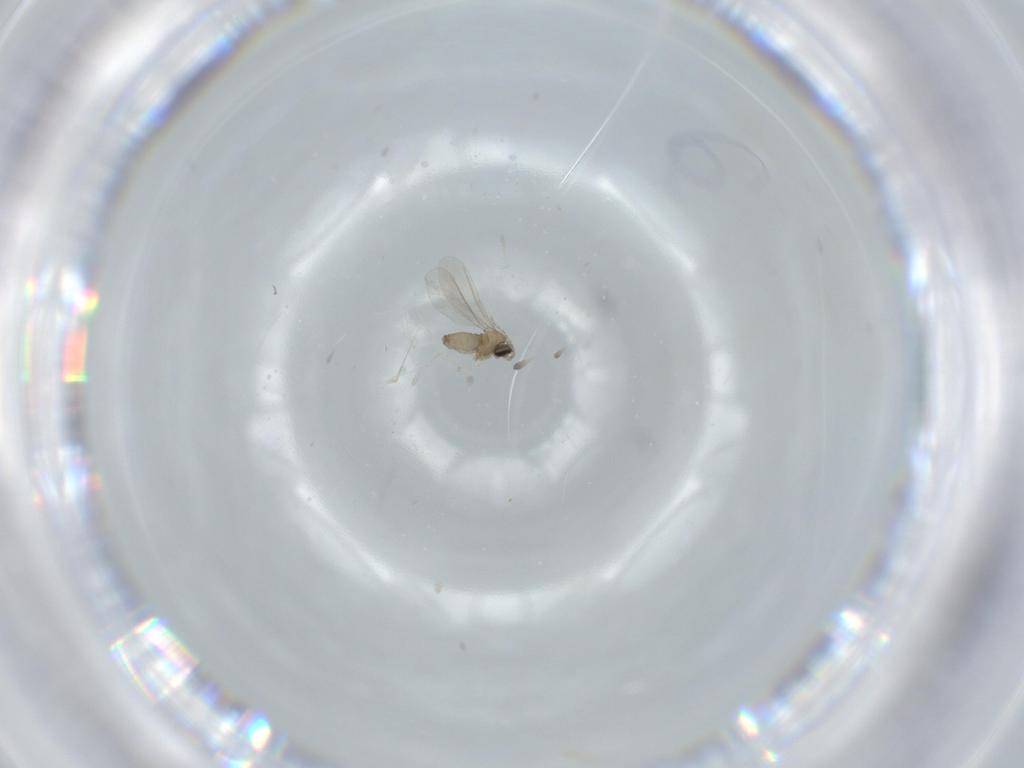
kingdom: Animalia
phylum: Arthropoda
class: Insecta
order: Diptera
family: Cecidomyiidae
